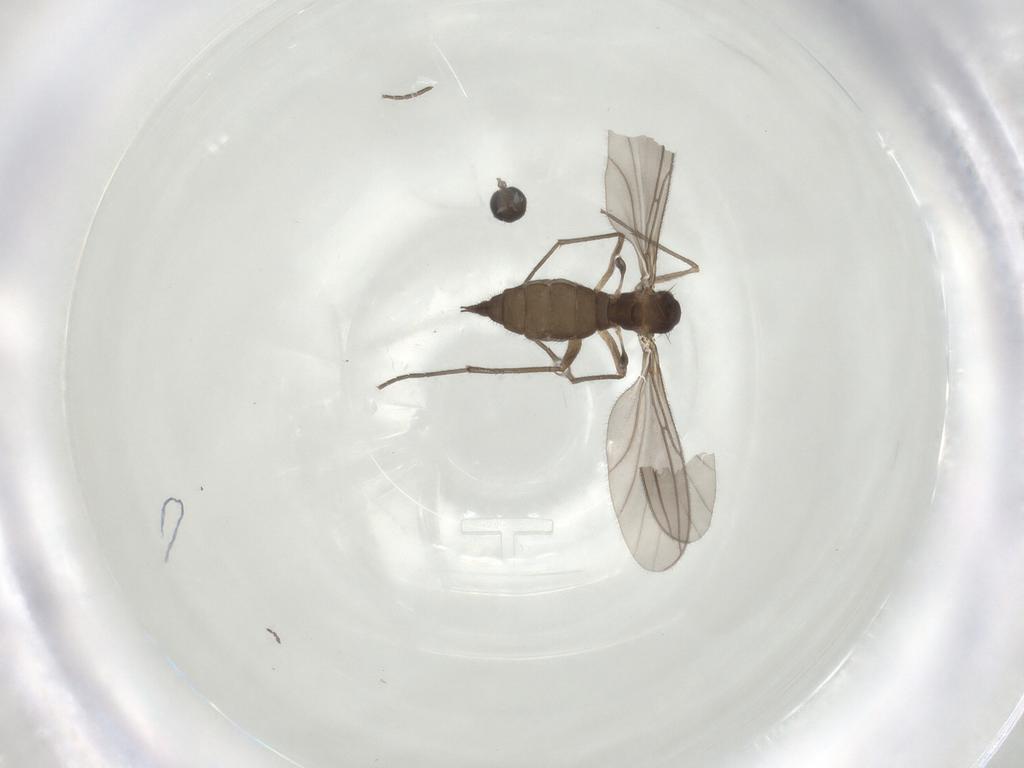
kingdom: Animalia
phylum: Arthropoda
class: Insecta
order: Diptera
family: Sciaridae
